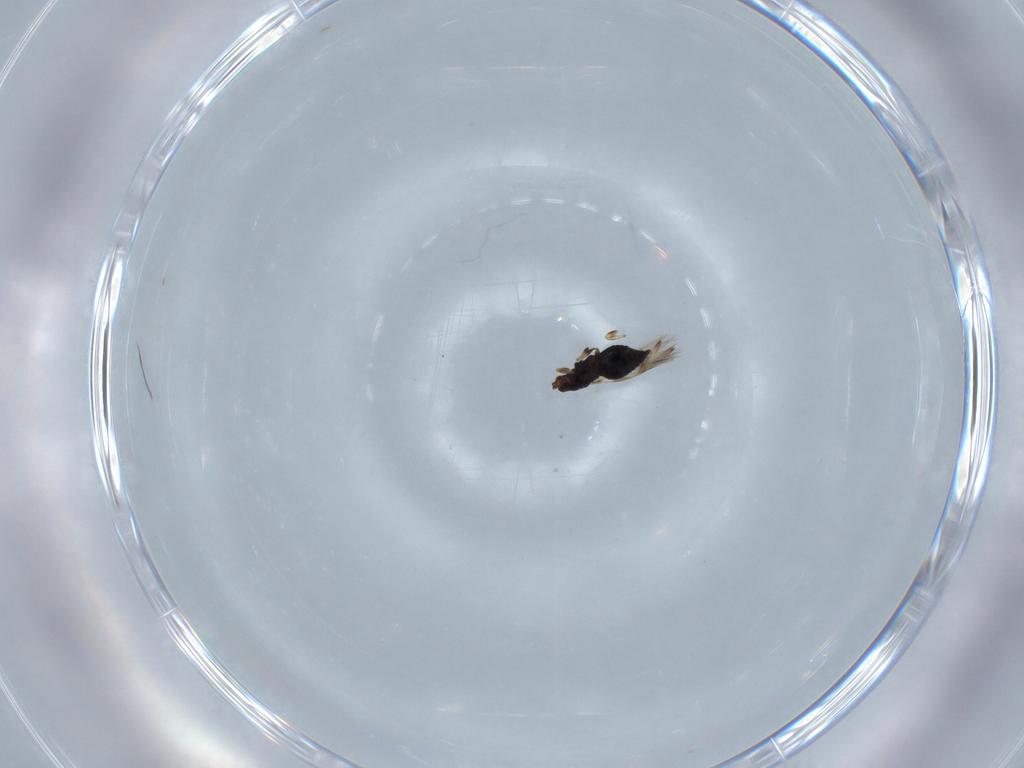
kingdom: Animalia
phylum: Arthropoda
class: Insecta
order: Thysanoptera
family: Thripidae
